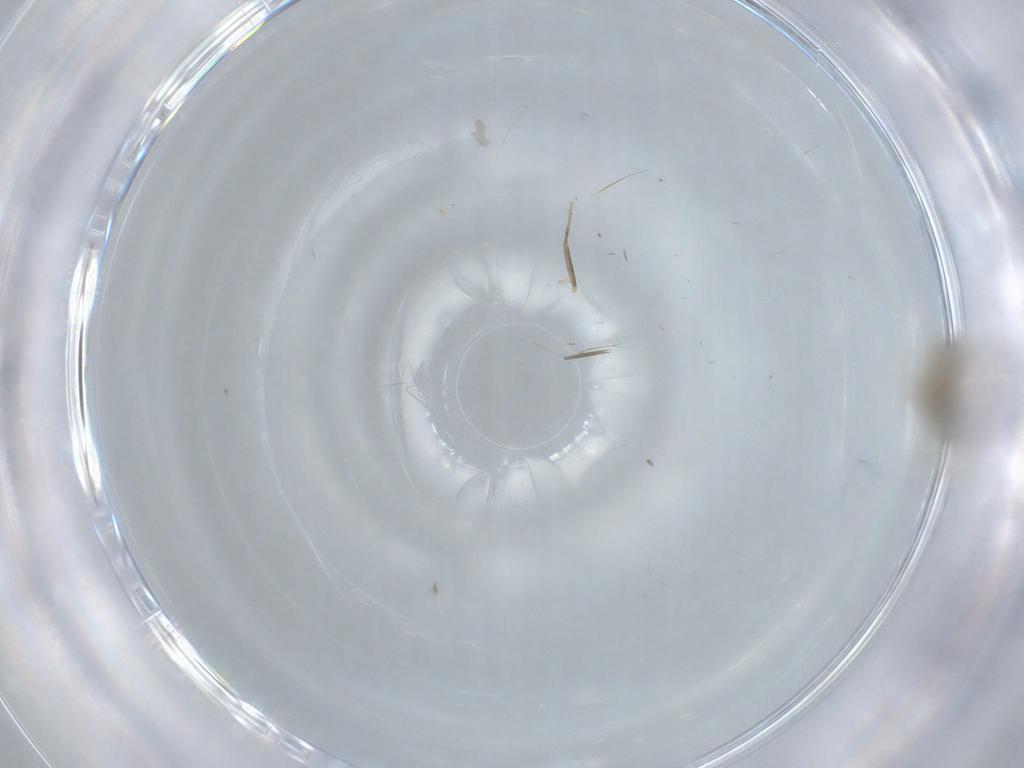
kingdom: Animalia
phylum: Arthropoda
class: Insecta
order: Diptera
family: Cecidomyiidae
